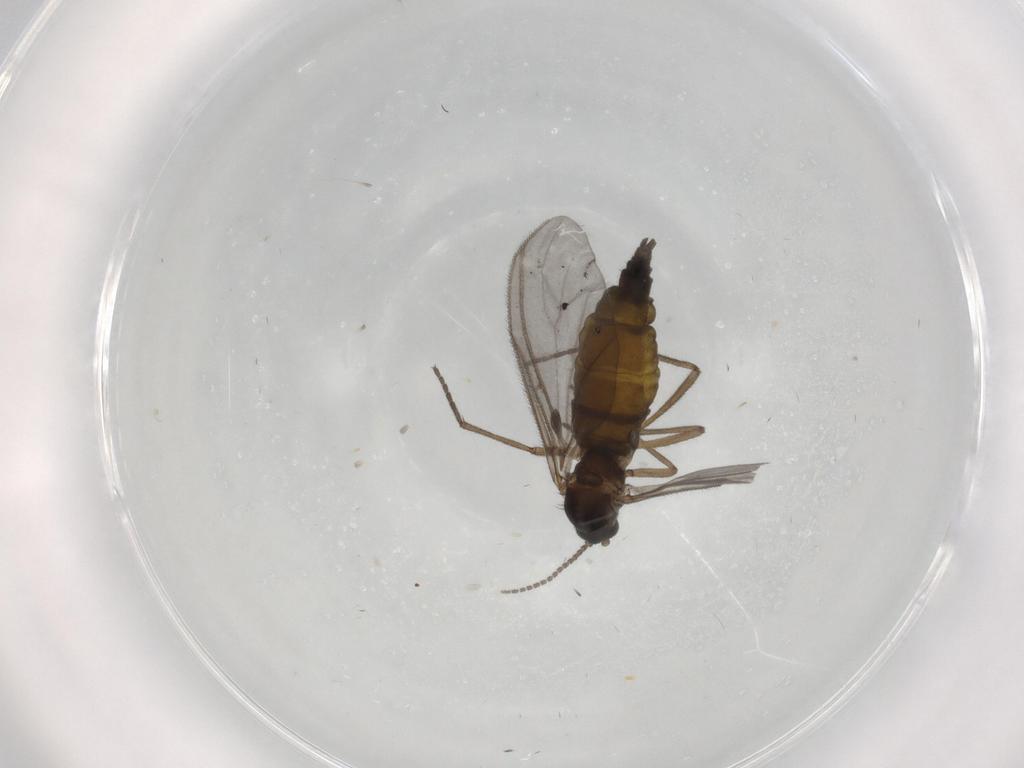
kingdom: Animalia
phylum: Arthropoda
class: Insecta
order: Diptera
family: Sciaridae
